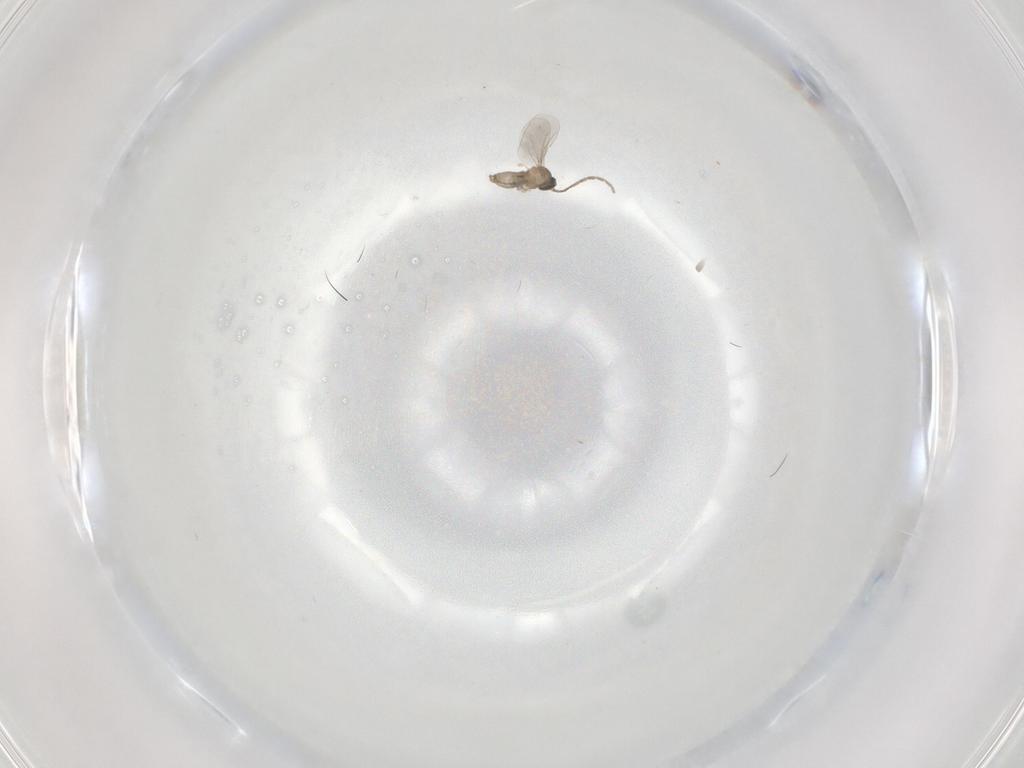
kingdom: Animalia
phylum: Arthropoda
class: Insecta
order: Diptera
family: Cecidomyiidae
